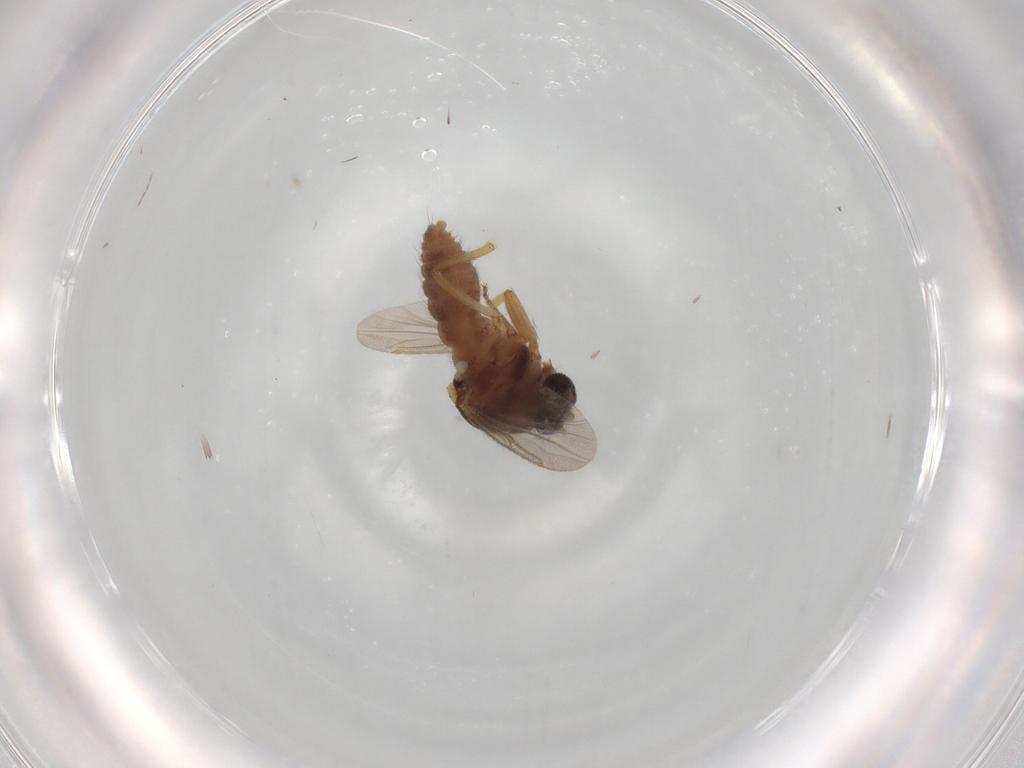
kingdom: Animalia
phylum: Arthropoda
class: Insecta
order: Diptera
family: Ceratopogonidae
